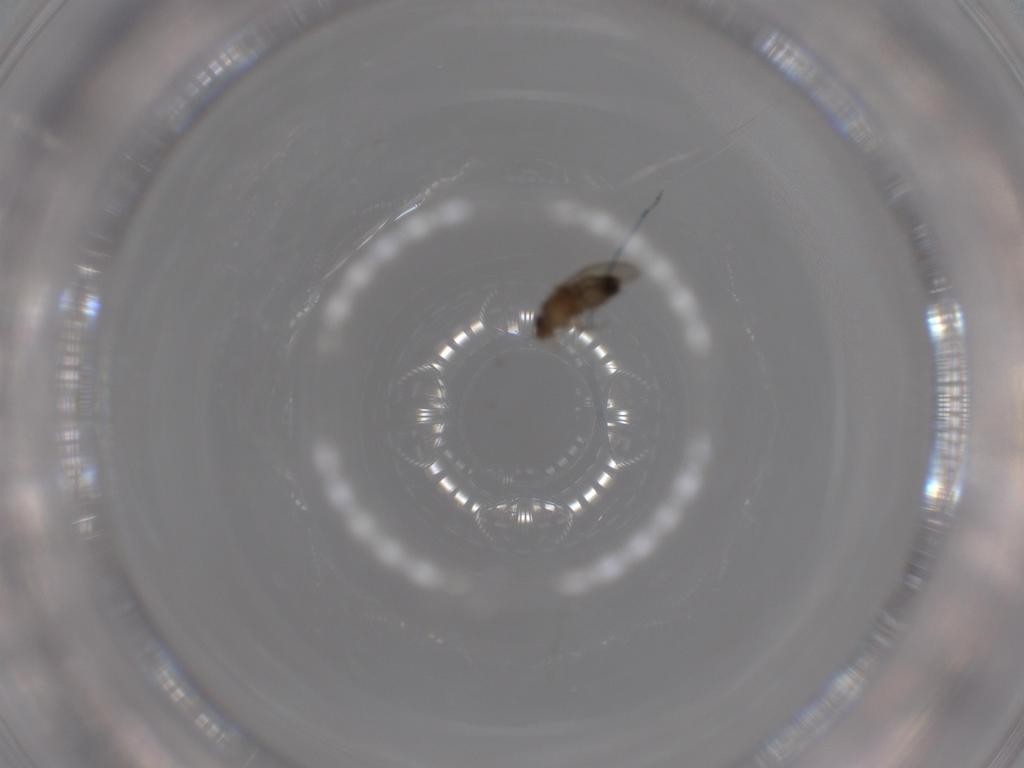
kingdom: Animalia
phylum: Arthropoda
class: Insecta
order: Diptera
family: Phoridae
